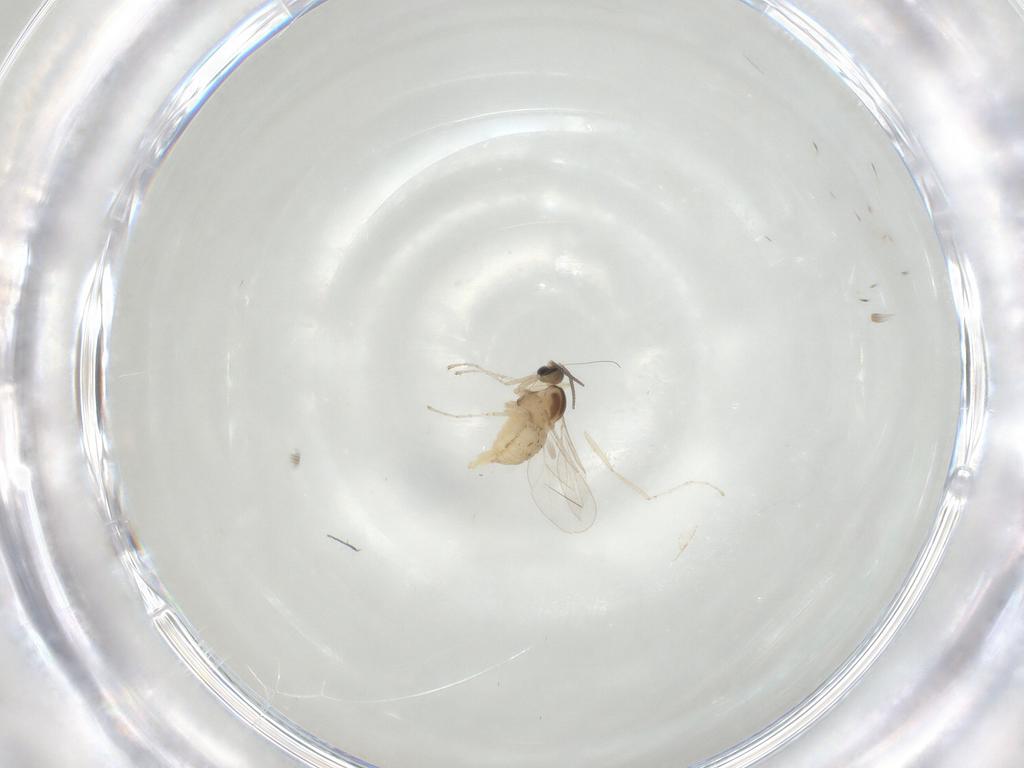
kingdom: Animalia
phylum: Arthropoda
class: Insecta
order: Diptera
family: Cecidomyiidae
